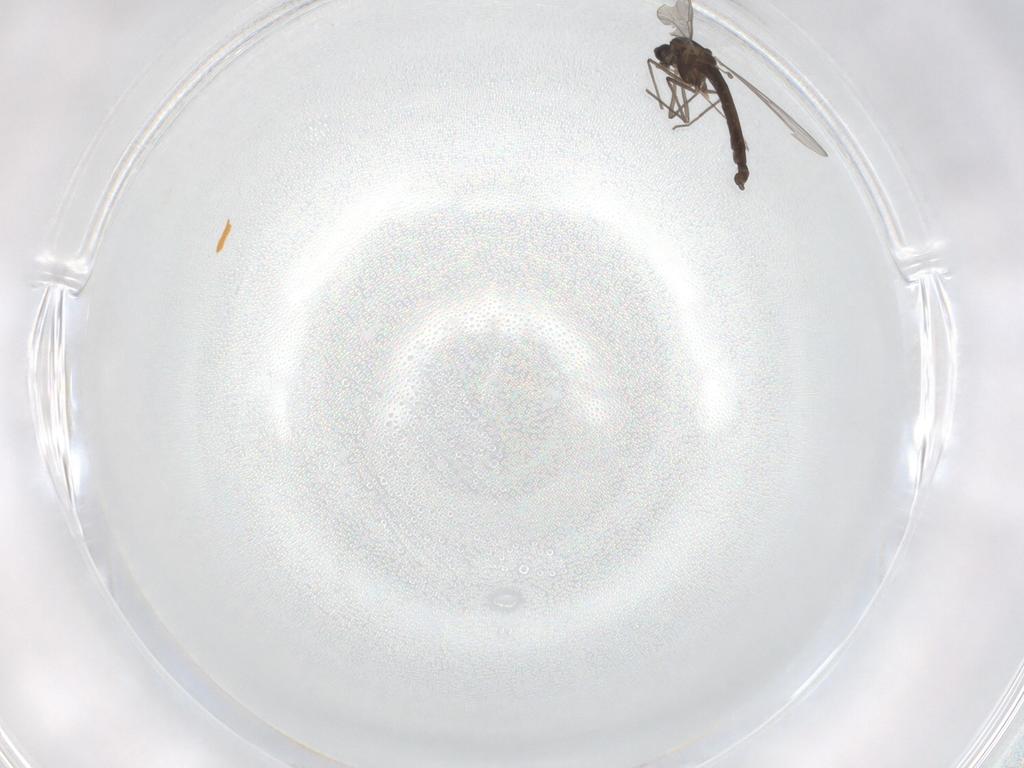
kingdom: Animalia
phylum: Arthropoda
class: Insecta
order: Diptera
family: Chironomidae
